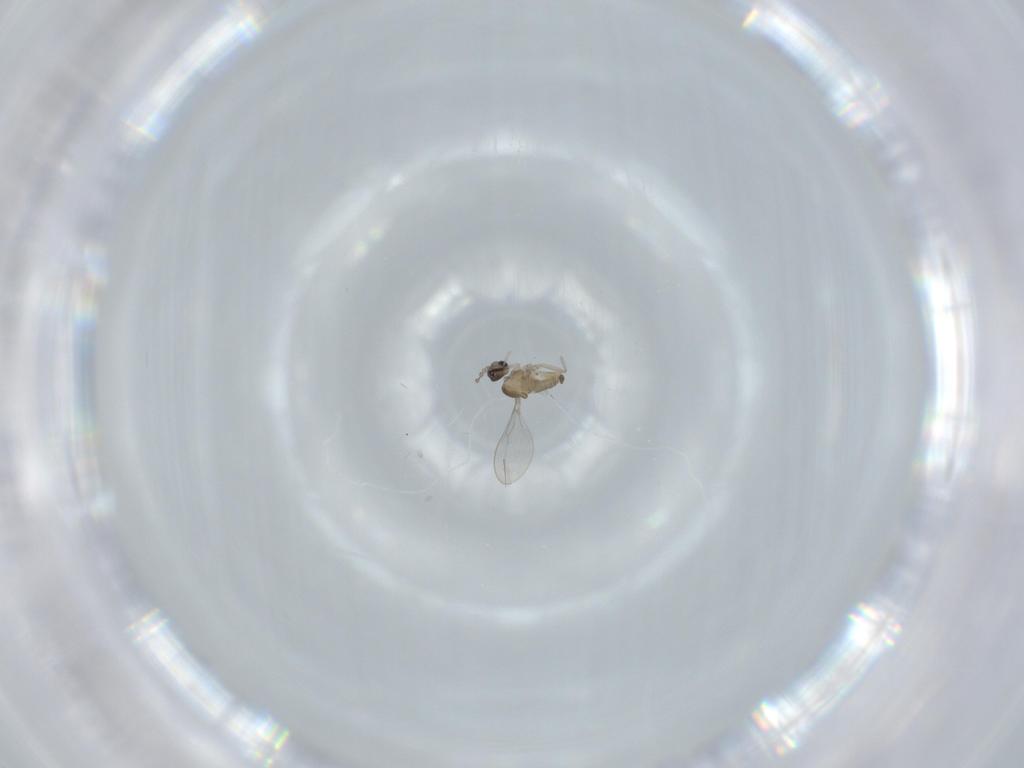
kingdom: Animalia
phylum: Arthropoda
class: Insecta
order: Diptera
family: Cecidomyiidae
